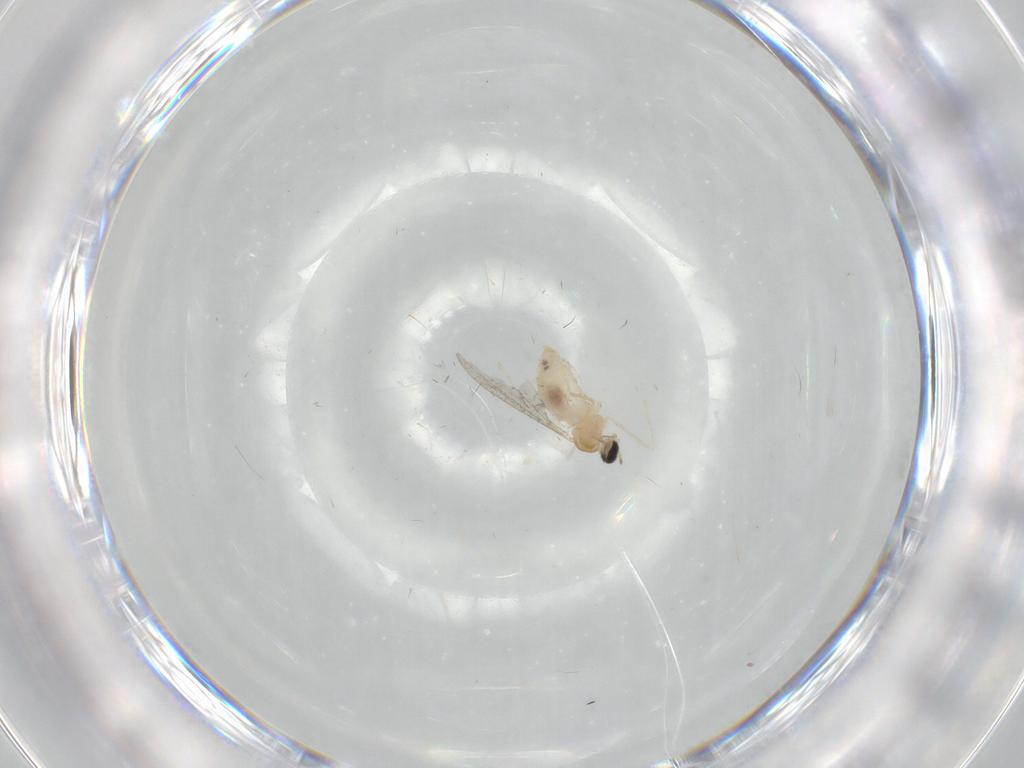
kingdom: Animalia
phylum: Arthropoda
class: Insecta
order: Diptera
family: Cecidomyiidae
